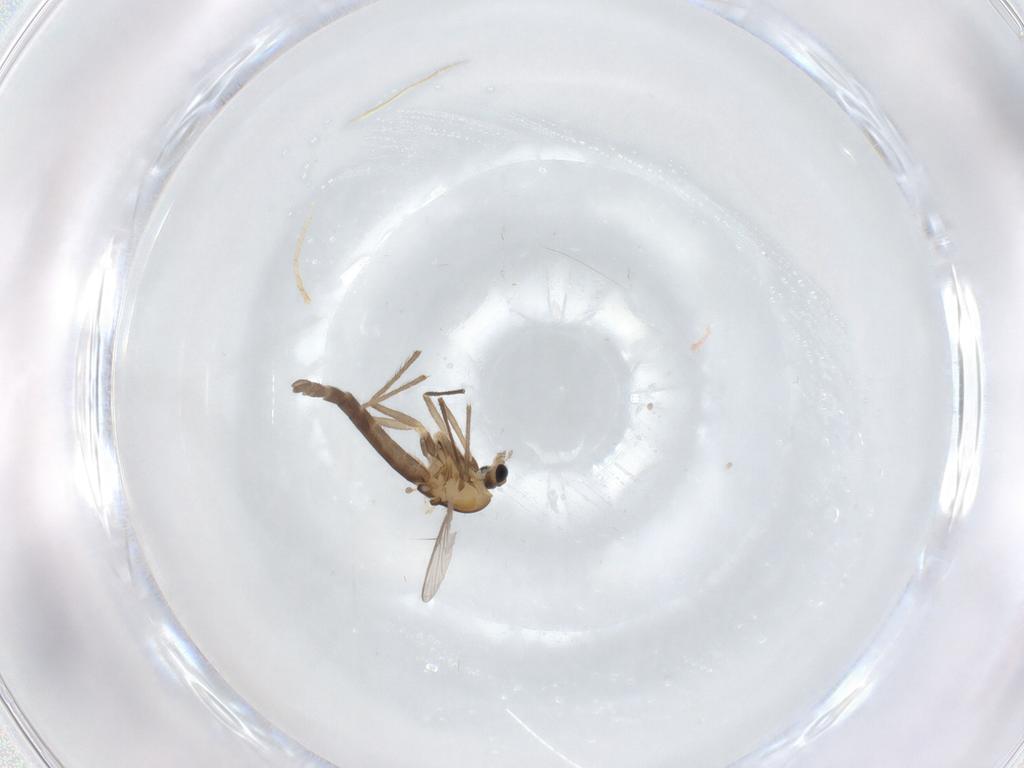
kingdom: Animalia
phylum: Arthropoda
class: Insecta
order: Diptera
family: Chironomidae
